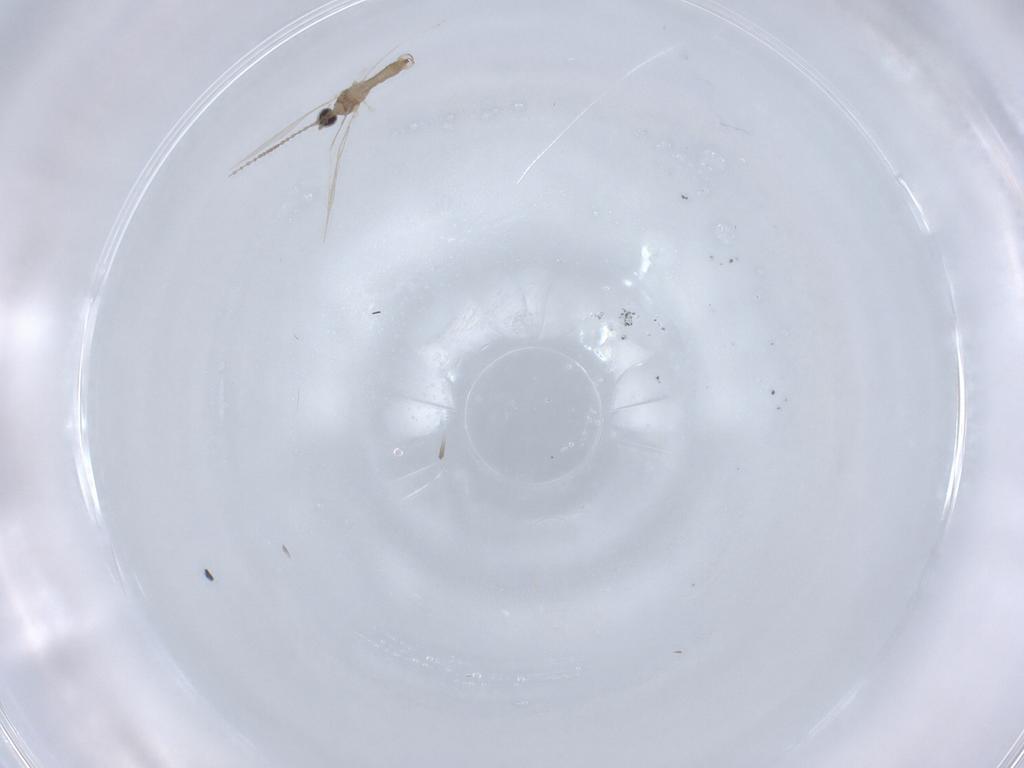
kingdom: Animalia
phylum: Arthropoda
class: Insecta
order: Diptera
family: Cecidomyiidae
